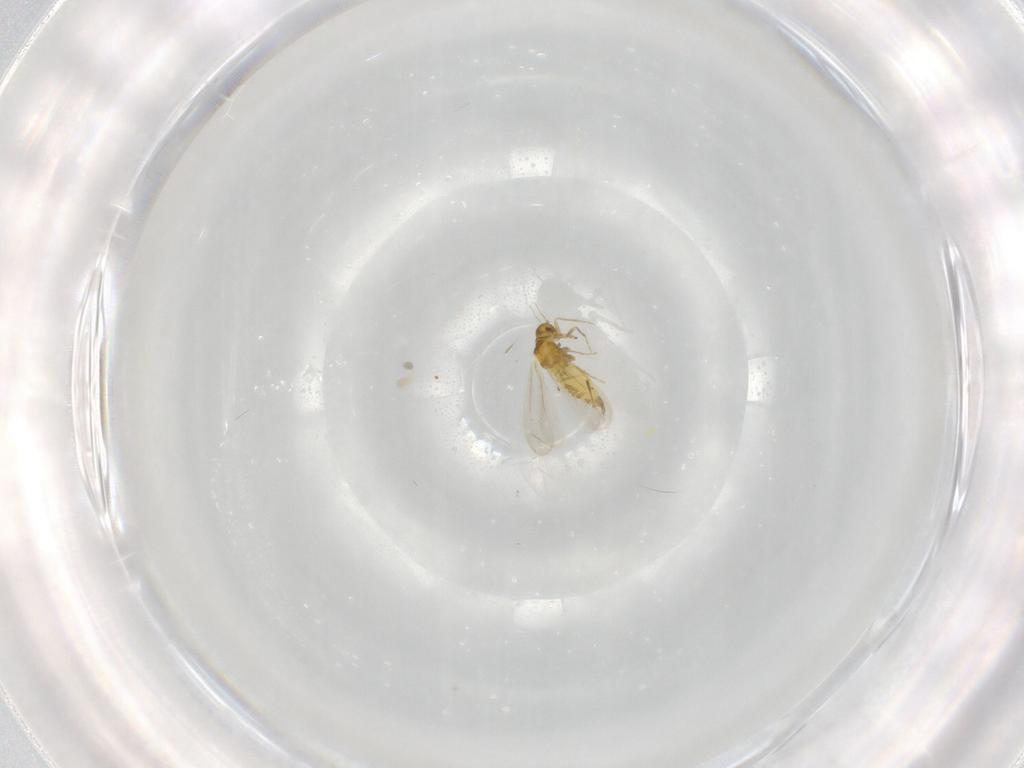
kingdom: Animalia
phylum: Arthropoda
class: Insecta
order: Hemiptera
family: Aleyrodidae
